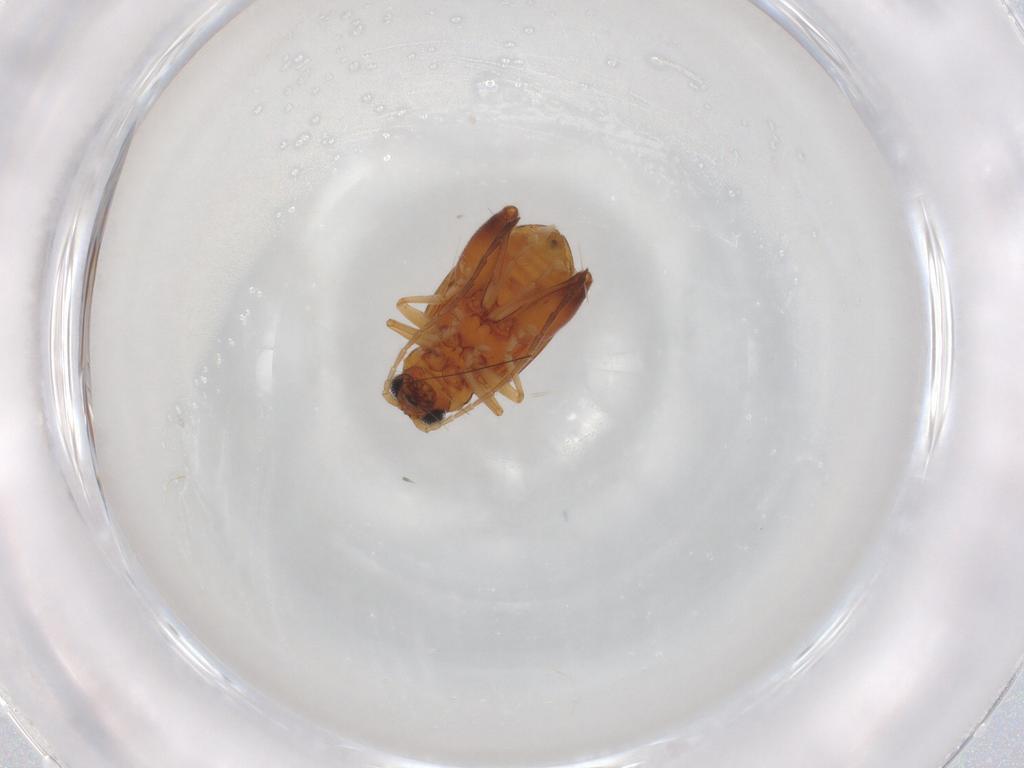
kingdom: Animalia
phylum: Arthropoda
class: Insecta
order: Coleoptera
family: Chrysomelidae
